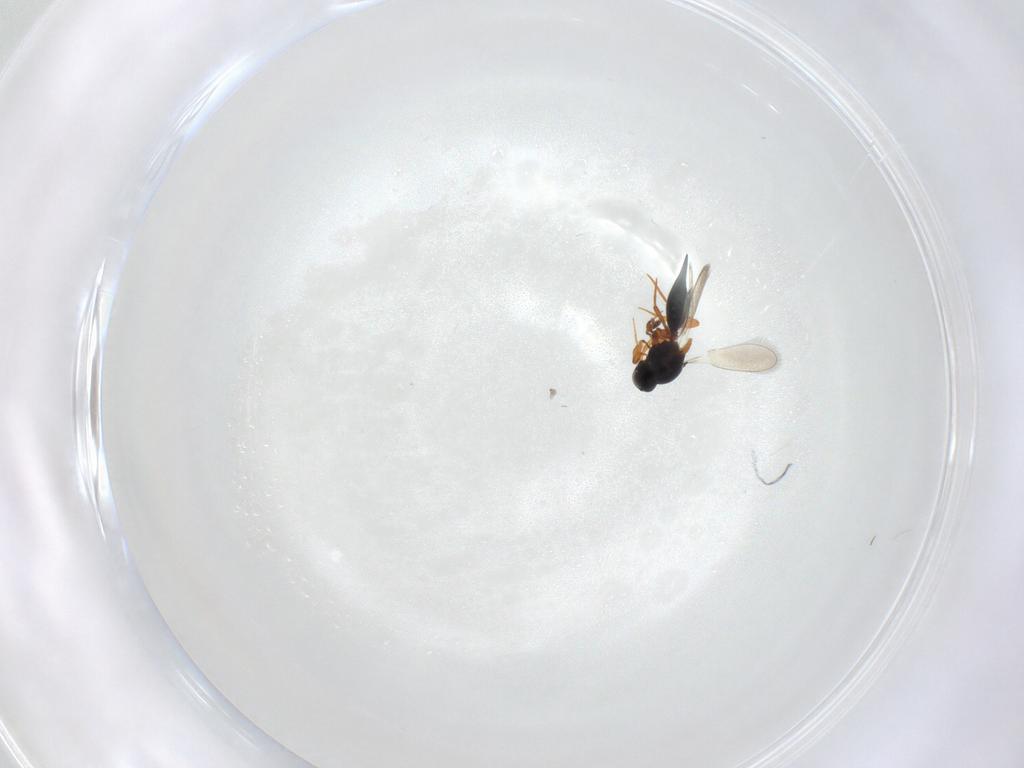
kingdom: Animalia
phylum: Arthropoda
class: Insecta
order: Hymenoptera
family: Platygastridae
